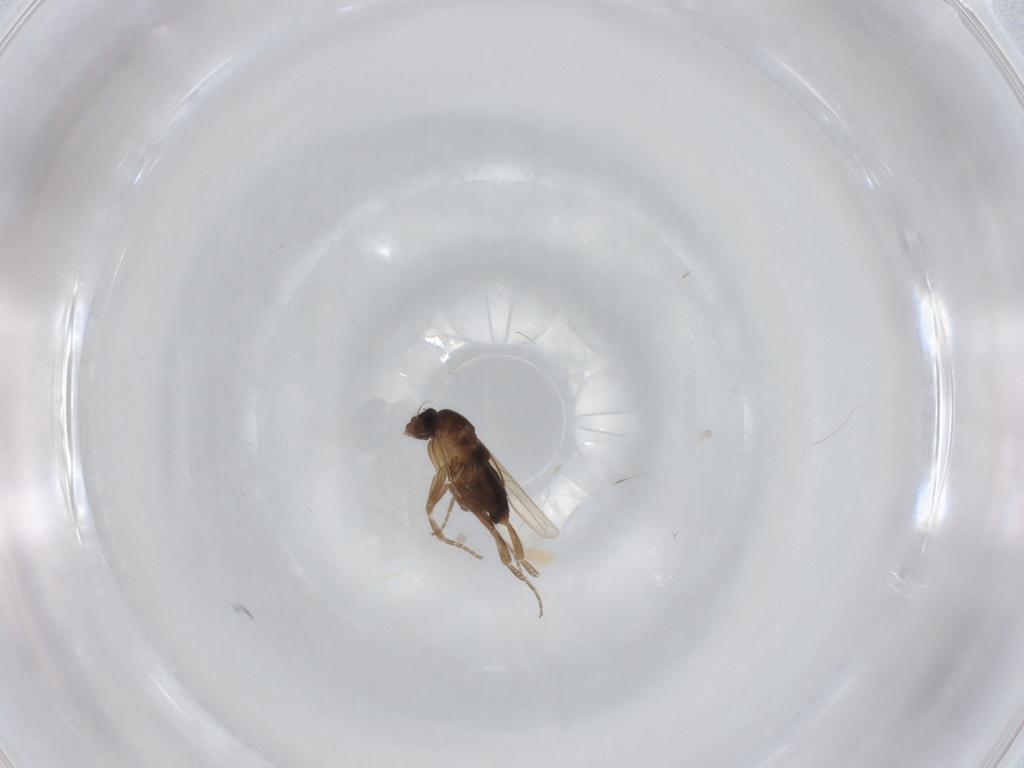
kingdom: Animalia
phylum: Arthropoda
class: Insecta
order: Diptera
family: Phoridae
